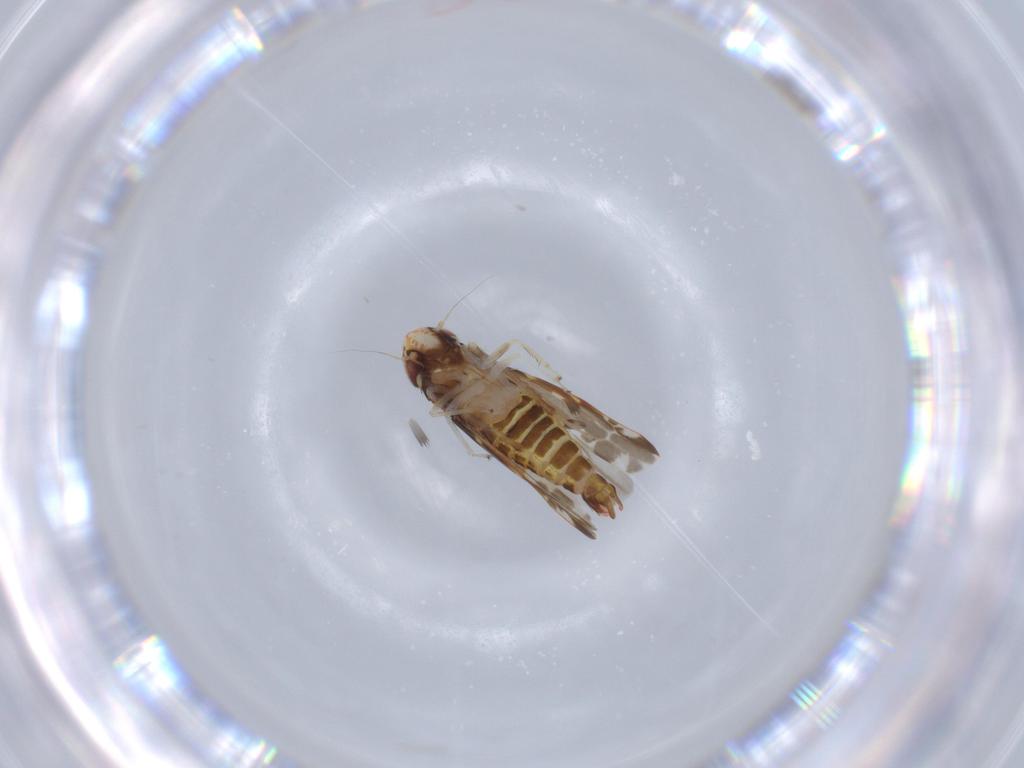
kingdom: Animalia
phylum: Arthropoda
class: Insecta
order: Hemiptera
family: Cicadellidae
